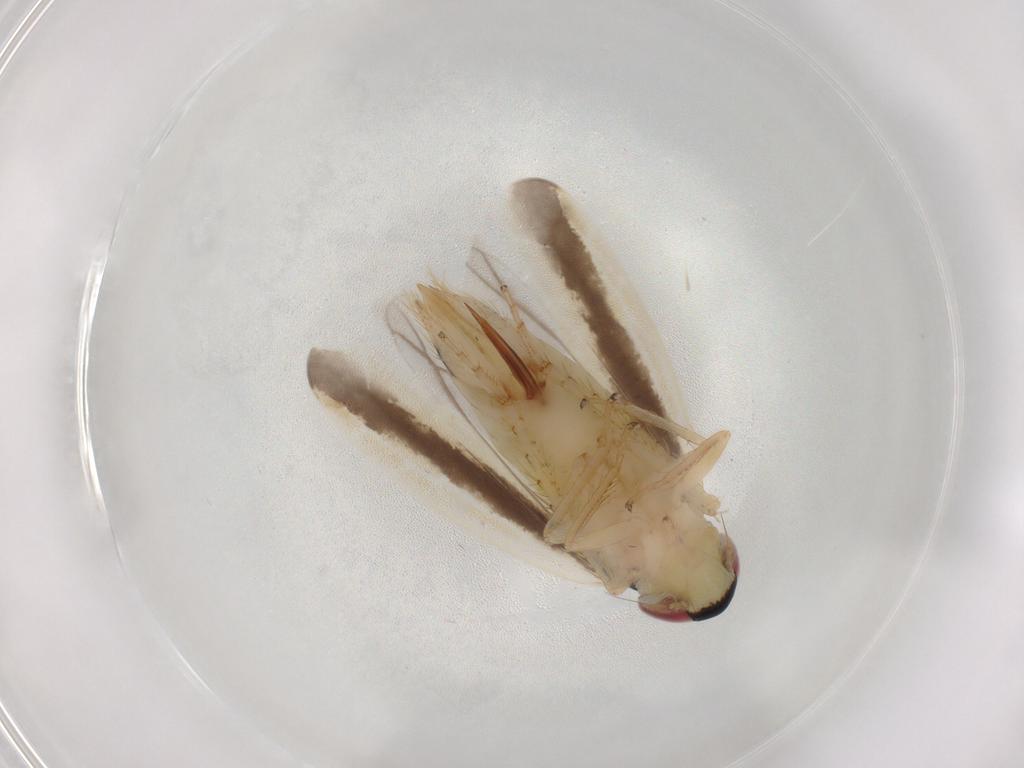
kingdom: Animalia
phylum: Arthropoda
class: Insecta
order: Hemiptera
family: Cicadellidae
